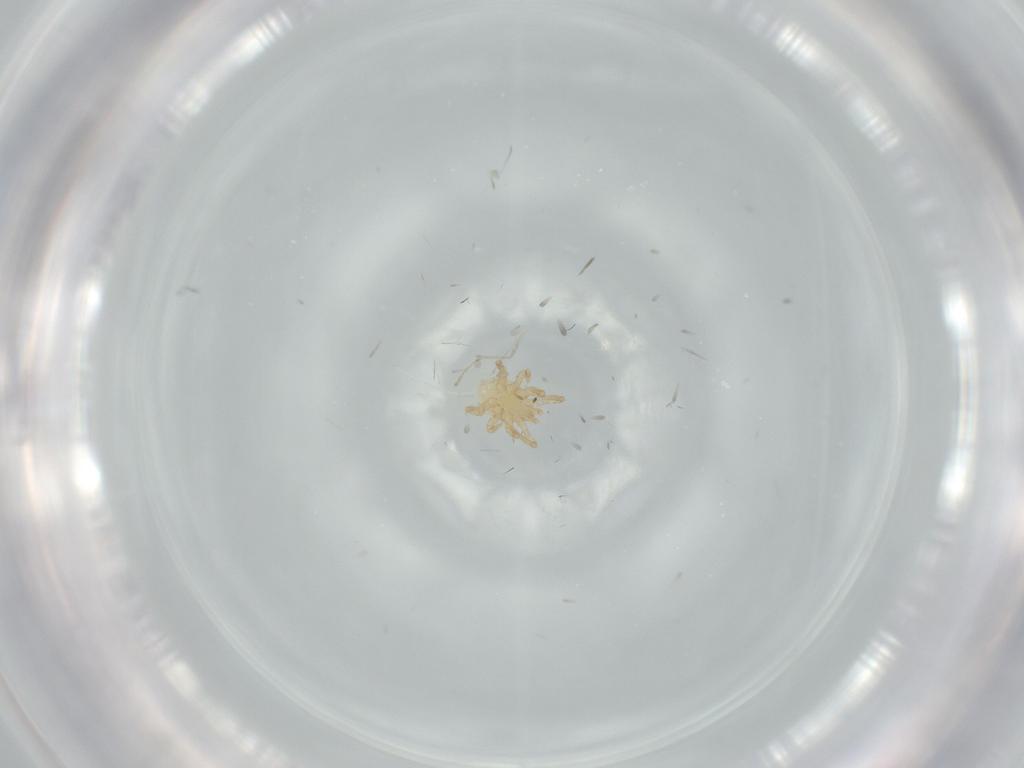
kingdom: Animalia
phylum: Arthropoda
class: Arachnida
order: Mesostigmata
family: Parasitidae
